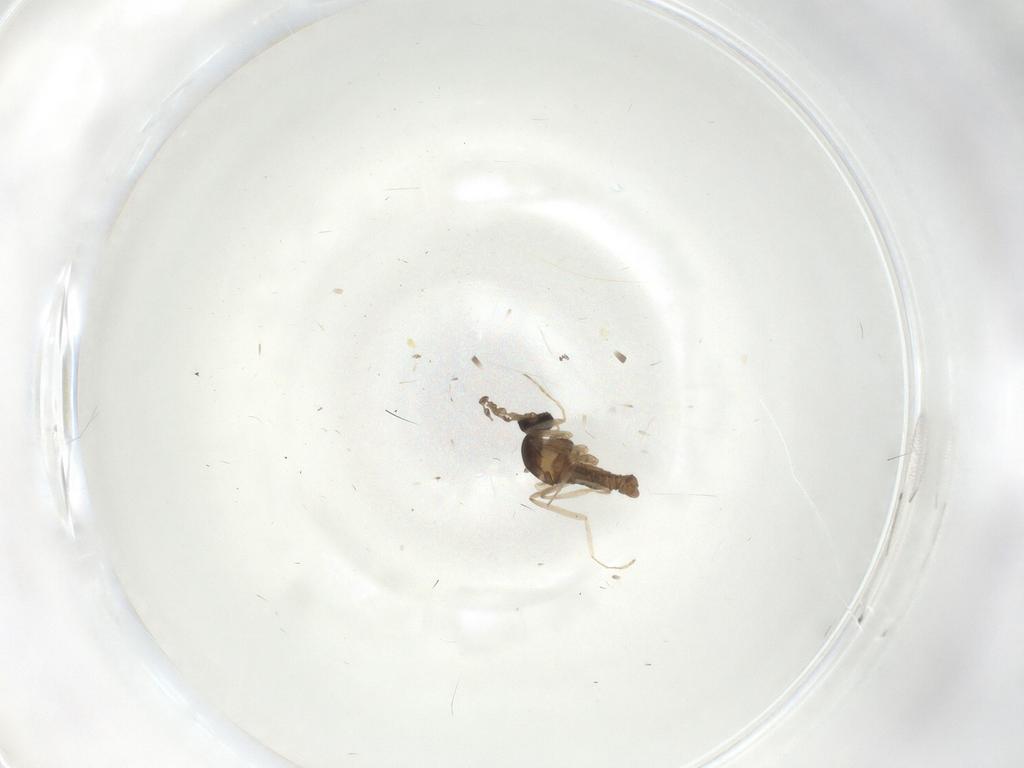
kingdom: Animalia
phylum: Arthropoda
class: Insecta
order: Diptera
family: Cecidomyiidae
